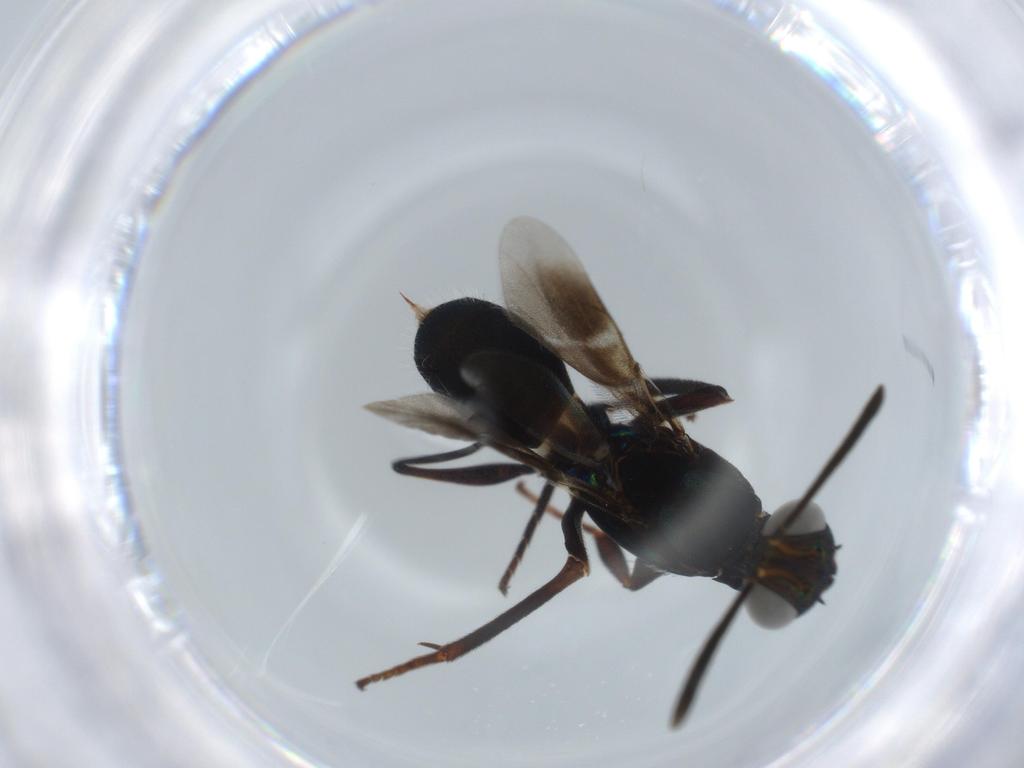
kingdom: Animalia
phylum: Arthropoda
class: Insecta
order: Hymenoptera
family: Eupelmidae
